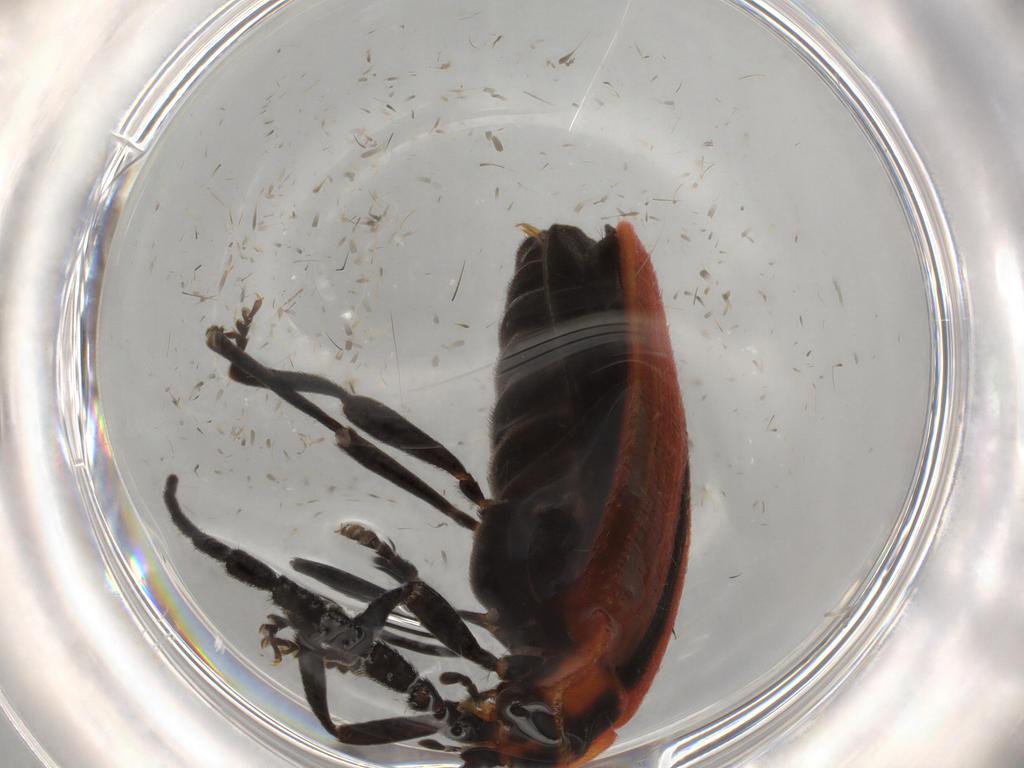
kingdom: Animalia
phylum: Arthropoda
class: Insecta
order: Coleoptera
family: Lycidae
